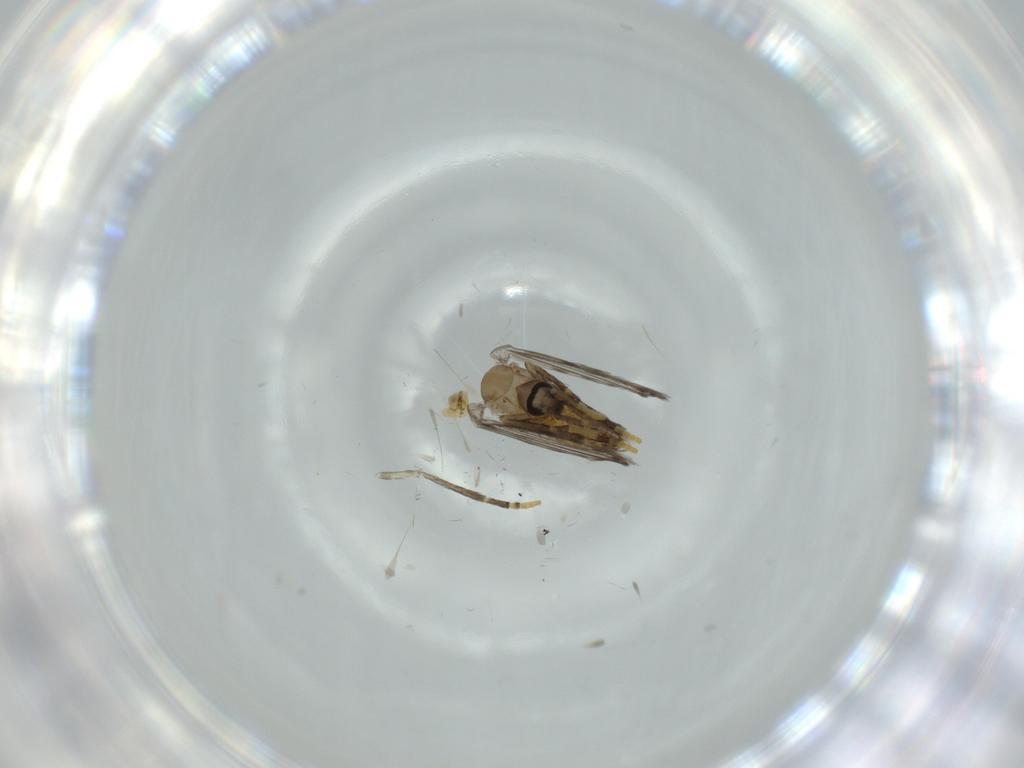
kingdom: Animalia
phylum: Arthropoda
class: Insecta
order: Diptera
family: Psychodidae
